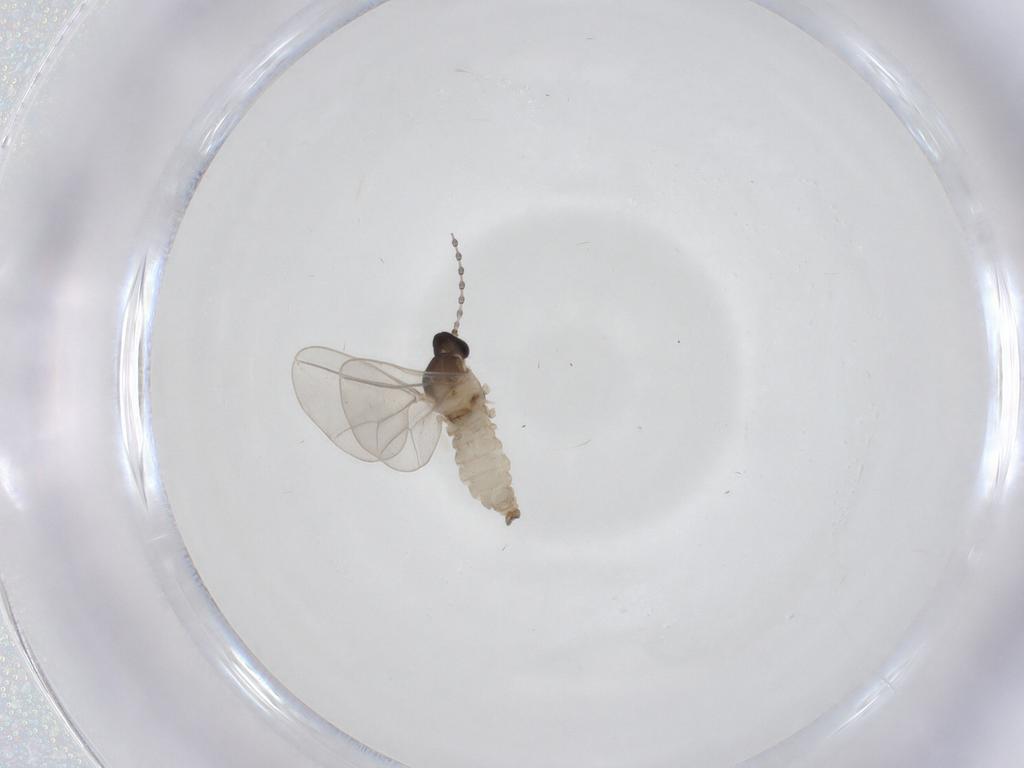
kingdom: Animalia
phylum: Arthropoda
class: Insecta
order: Diptera
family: Cecidomyiidae
